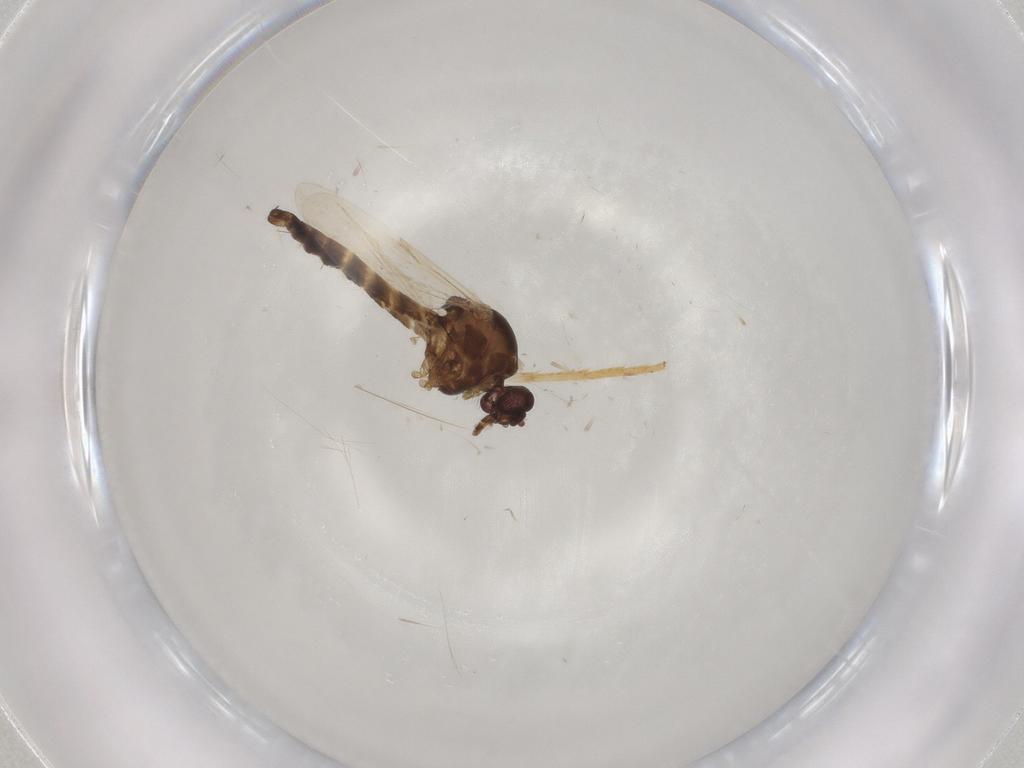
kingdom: Animalia
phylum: Arthropoda
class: Insecta
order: Diptera
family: Ceratopogonidae
